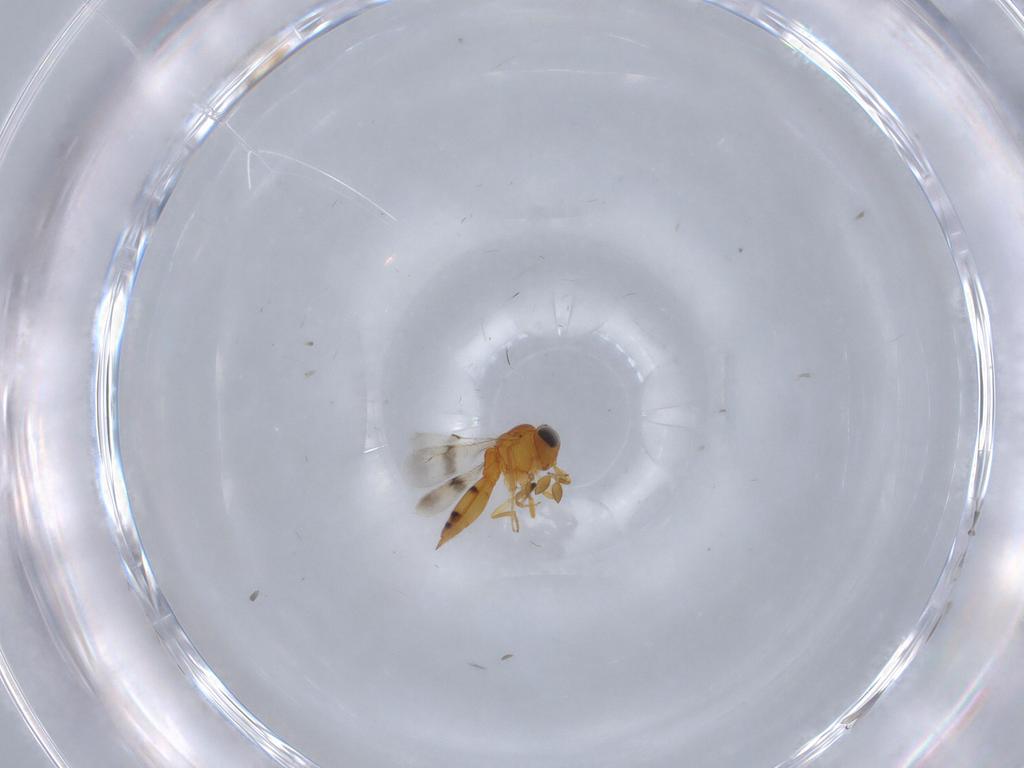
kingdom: Animalia
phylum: Arthropoda
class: Insecta
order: Hymenoptera
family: Scelionidae
